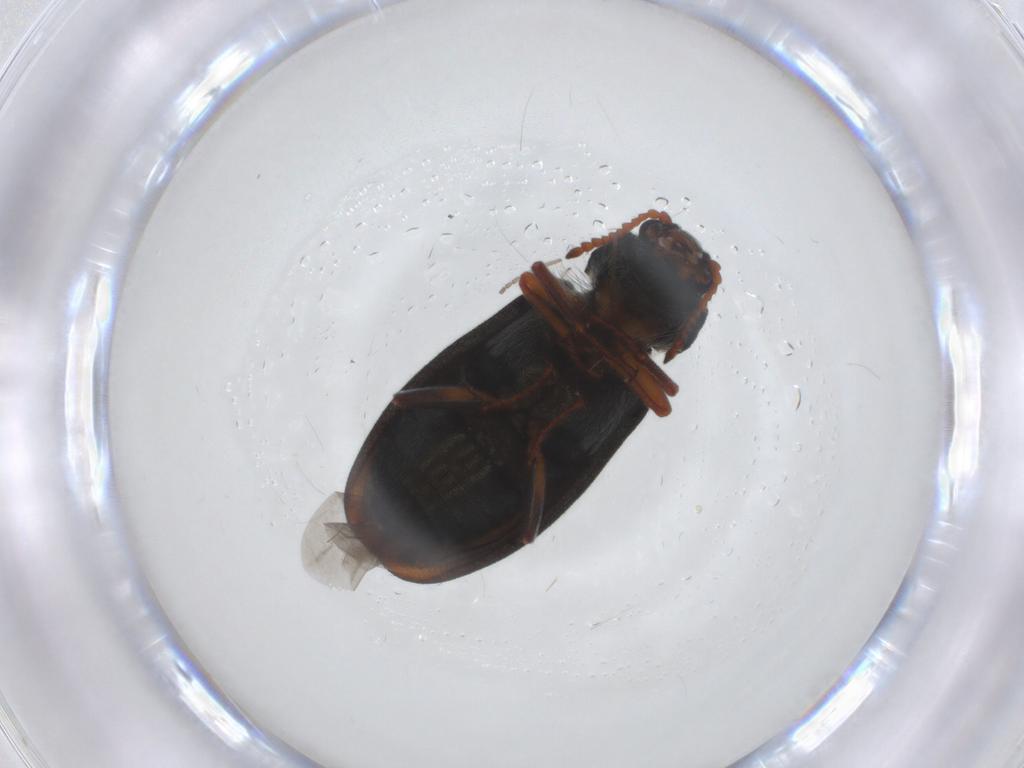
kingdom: Animalia
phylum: Arthropoda
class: Insecta
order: Coleoptera
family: Melyridae
